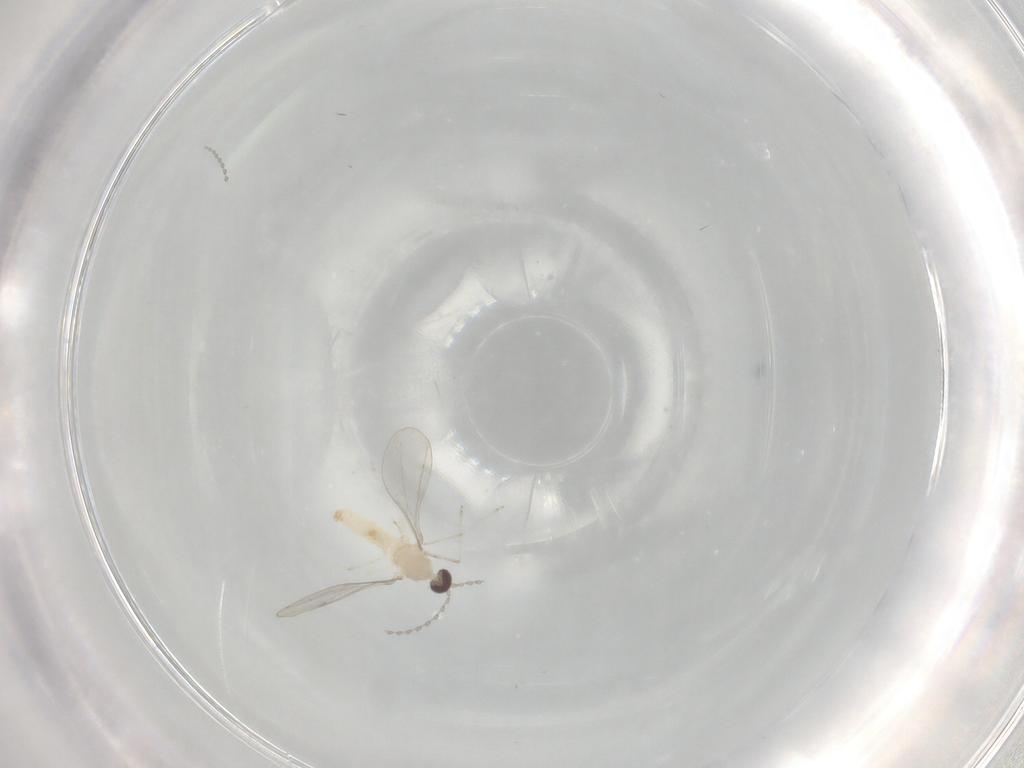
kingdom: Animalia
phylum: Arthropoda
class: Insecta
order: Diptera
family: Cecidomyiidae
